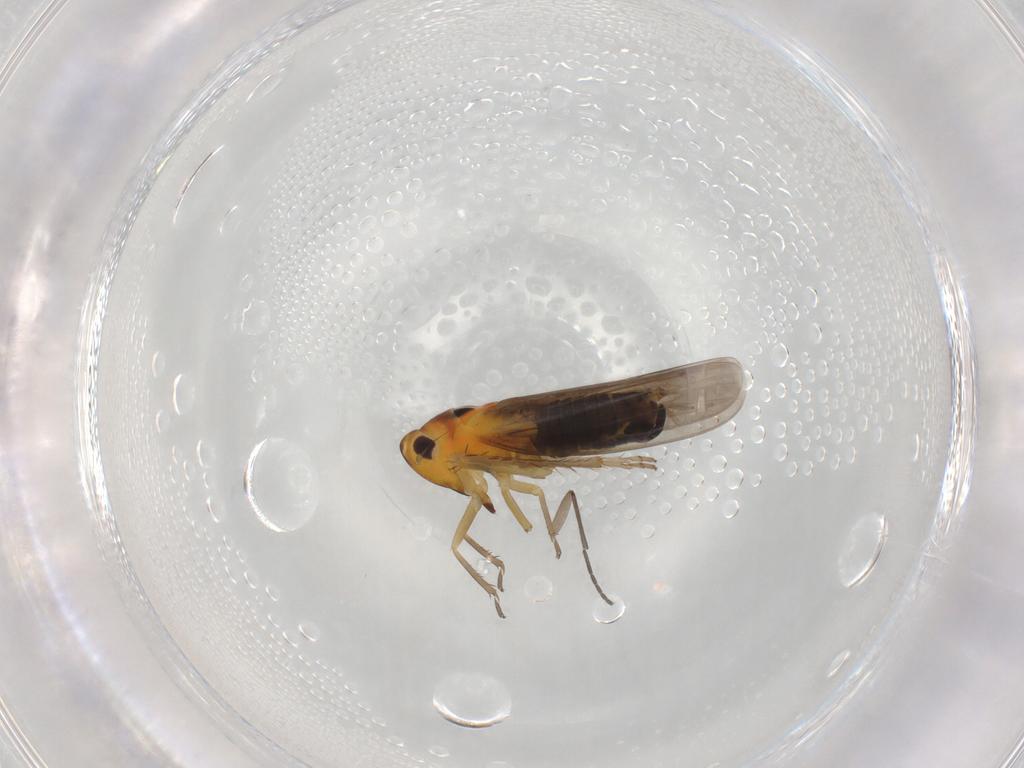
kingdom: Animalia
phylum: Arthropoda
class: Insecta
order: Hemiptera
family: Cicadellidae
